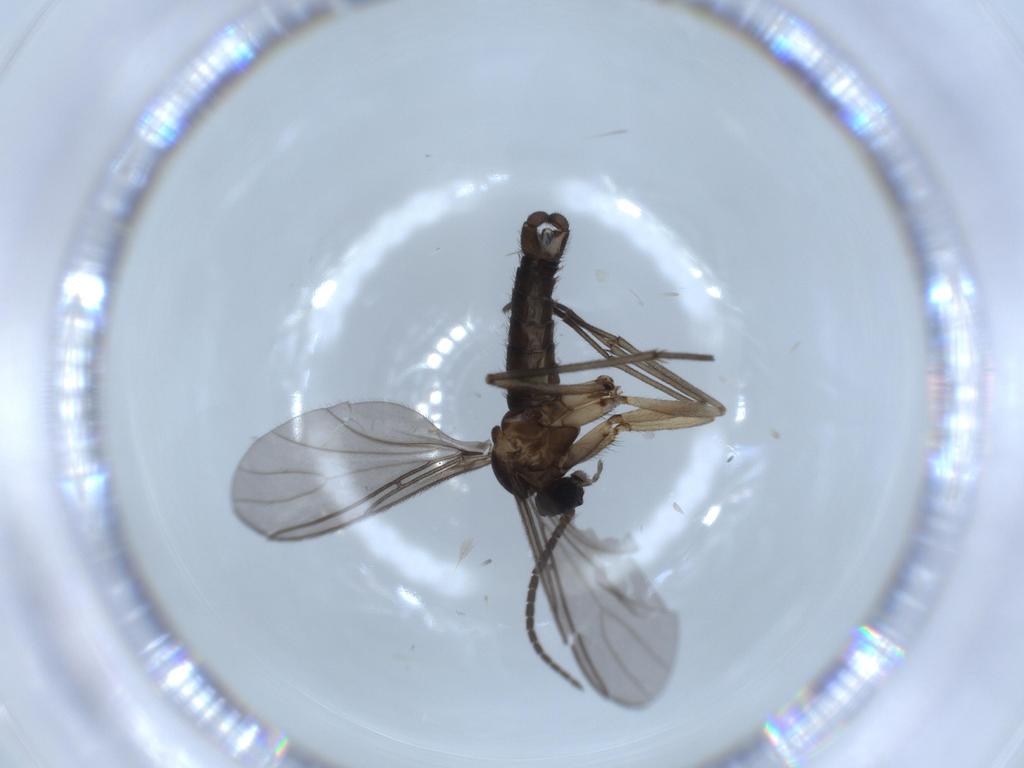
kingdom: Animalia
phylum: Arthropoda
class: Insecta
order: Diptera
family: Sciaridae
